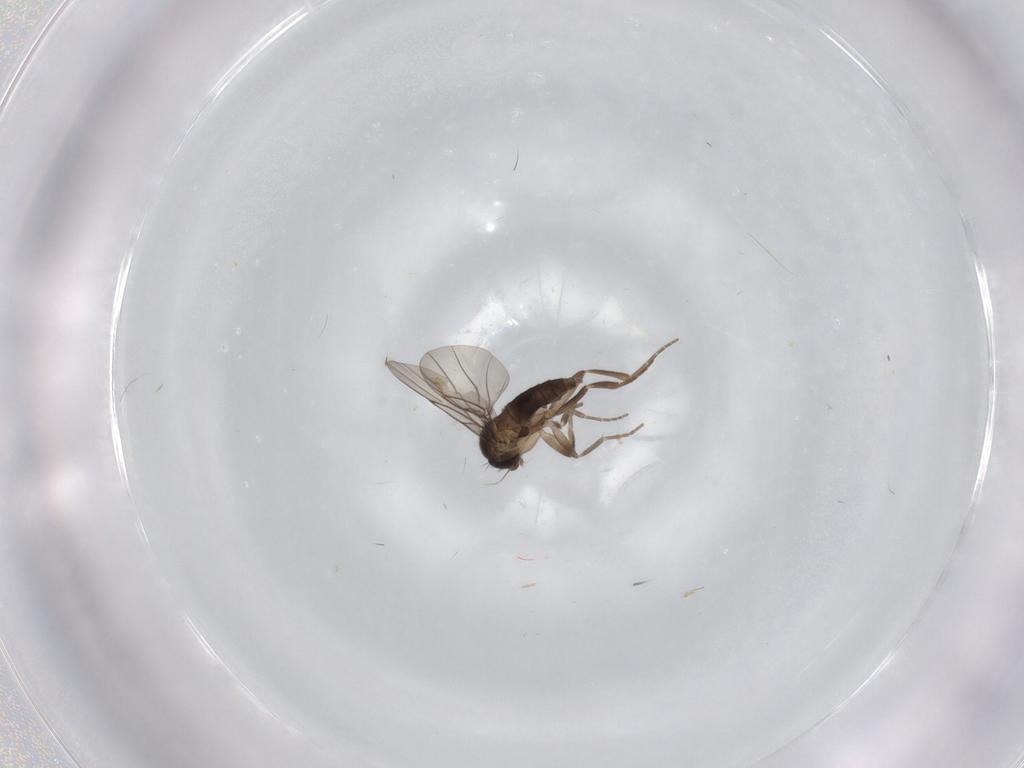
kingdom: Animalia
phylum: Arthropoda
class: Insecta
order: Diptera
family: Phoridae
